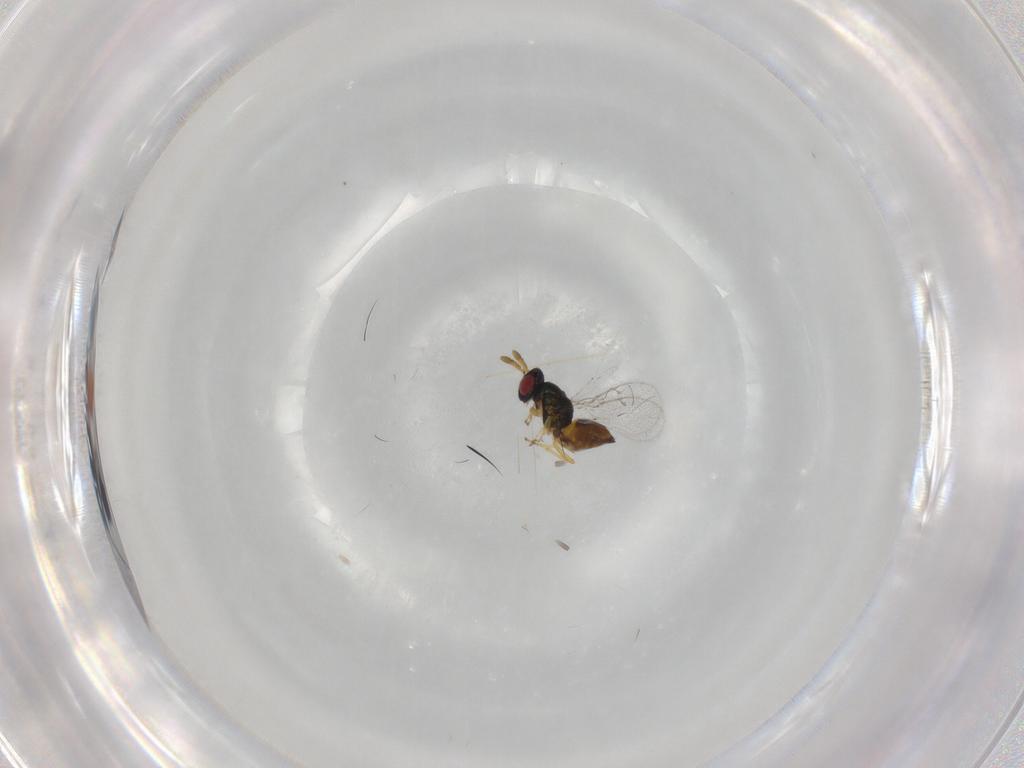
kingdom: Animalia
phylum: Arthropoda
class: Insecta
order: Hymenoptera
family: Eulophidae
